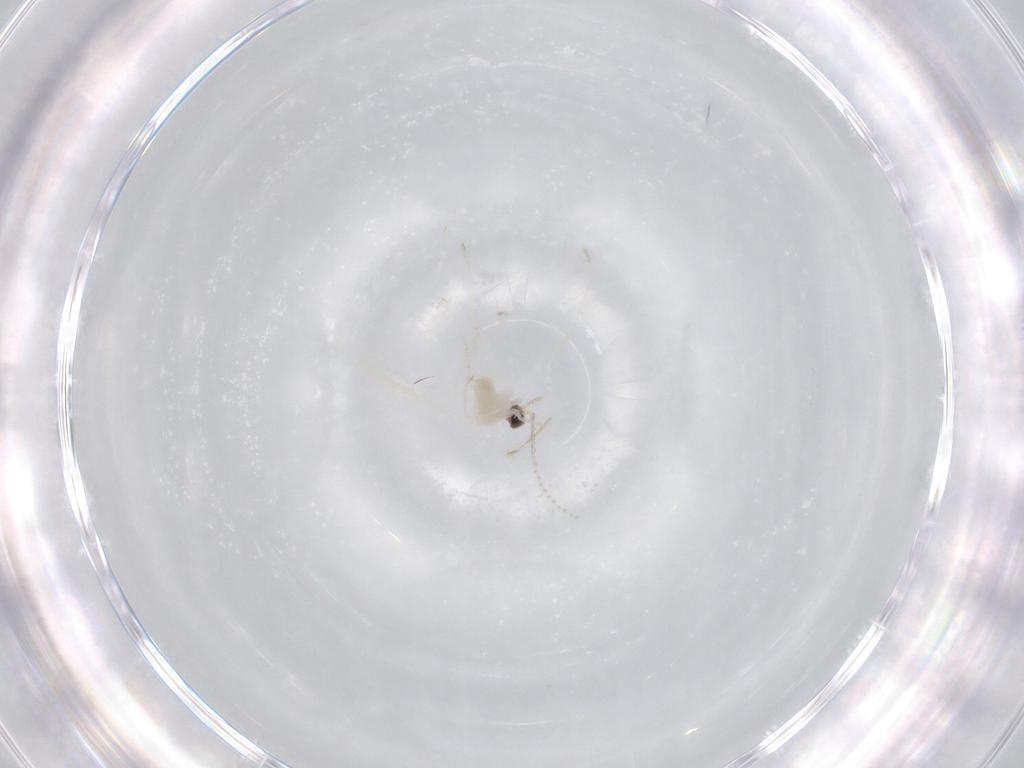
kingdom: Animalia
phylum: Arthropoda
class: Insecta
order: Diptera
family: Cecidomyiidae
